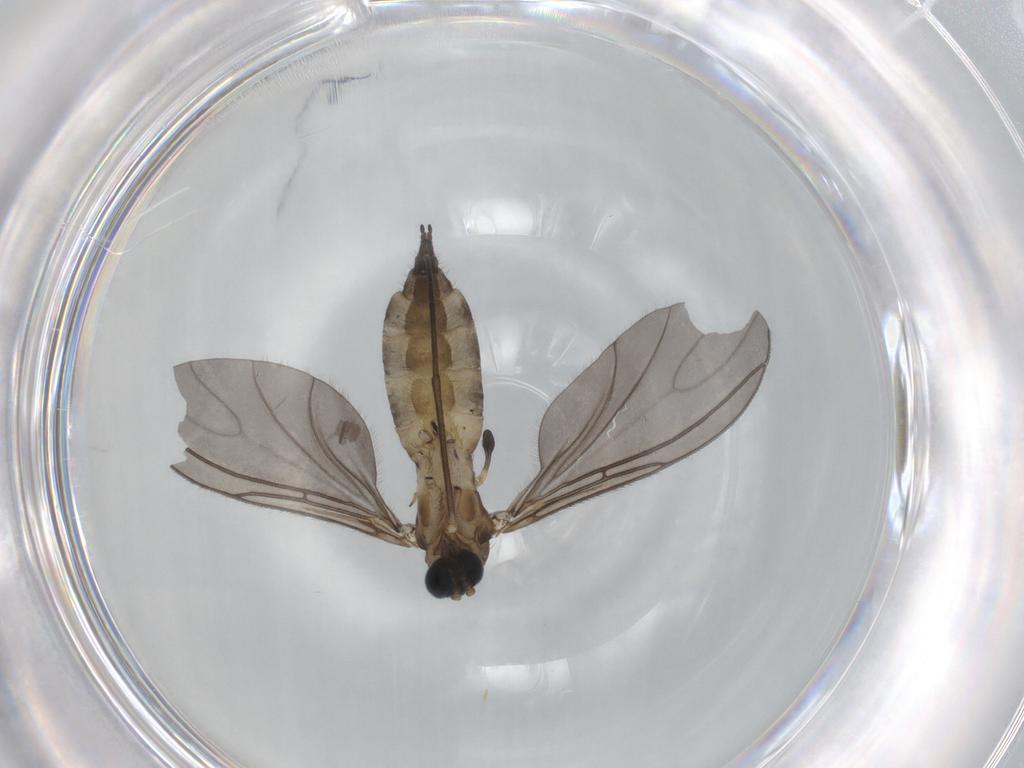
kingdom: Animalia
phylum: Arthropoda
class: Insecta
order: Diptera
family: Sciaridae
